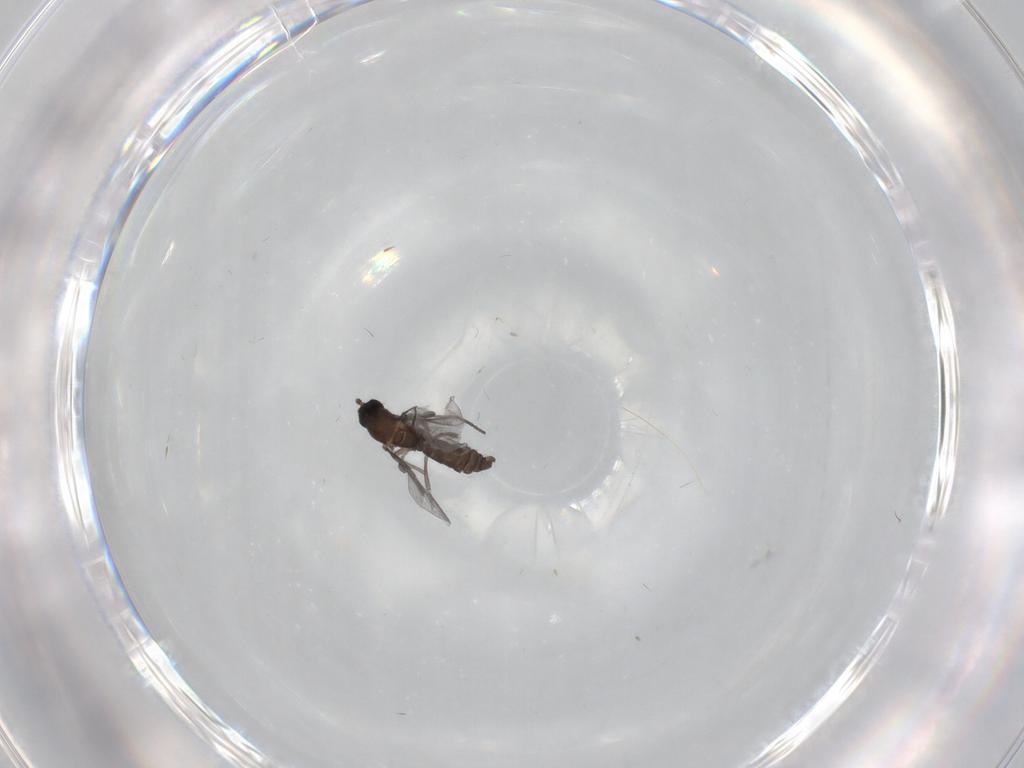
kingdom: Animalia
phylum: Arthropoda
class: Insecta
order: Diptera
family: Cecidomyiidae
